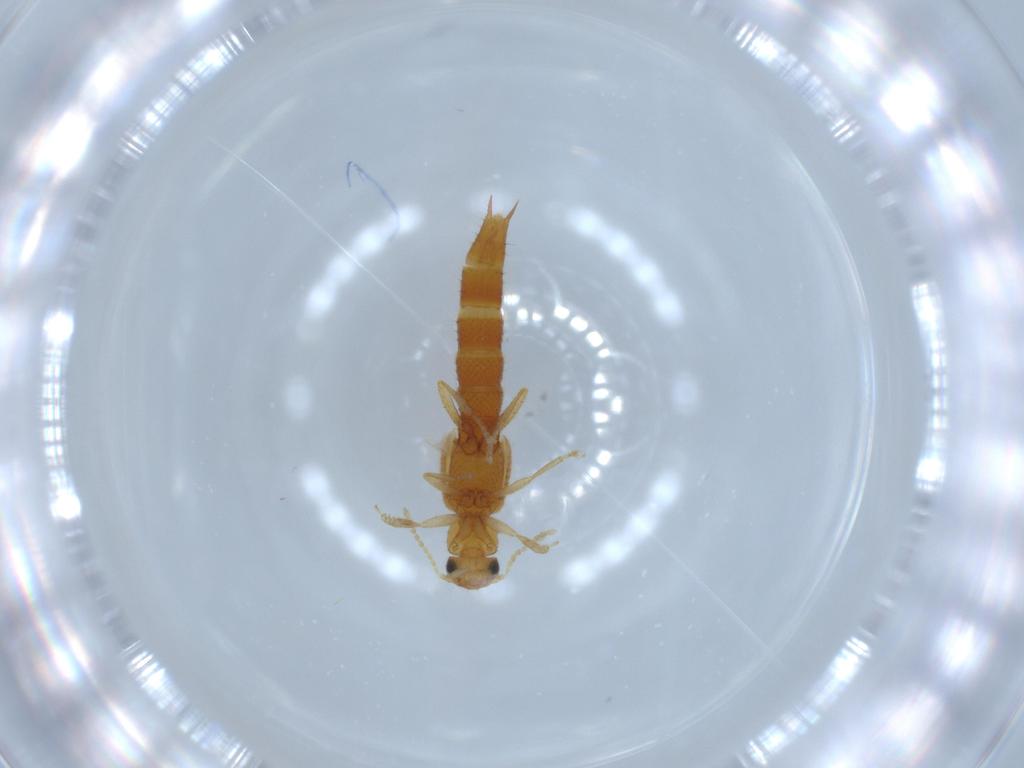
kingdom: Animalia
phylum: Arthropoda
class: Insecta
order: Coleoptera
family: Staphylinidae
